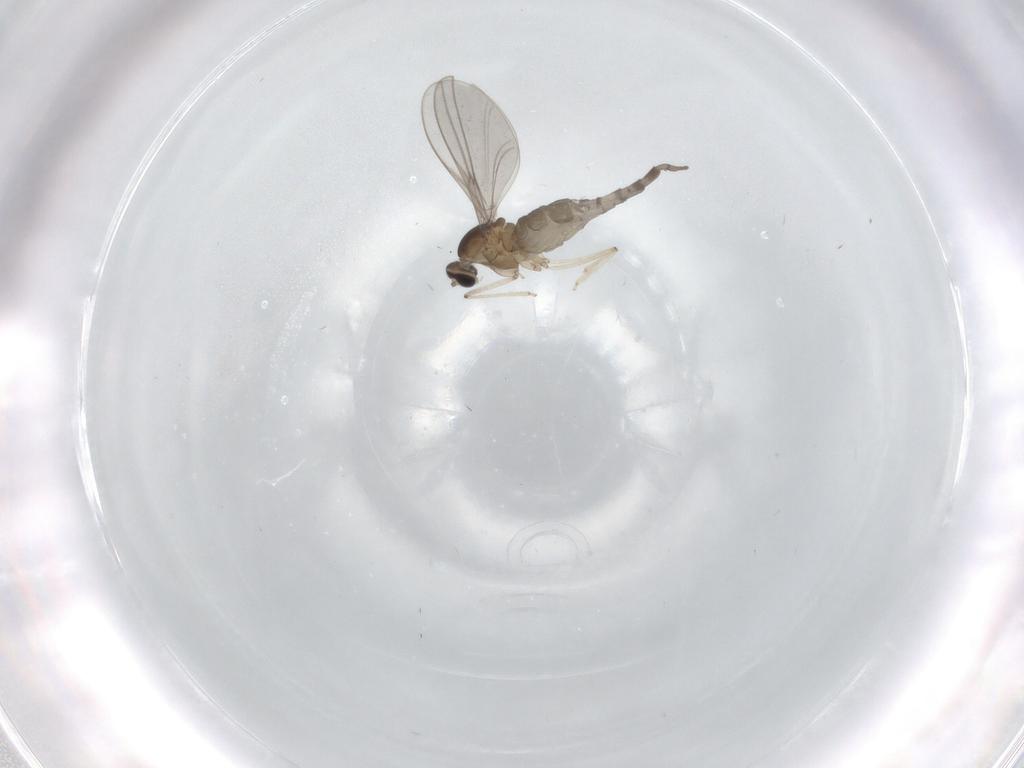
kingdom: Animalia
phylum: Arthropoda
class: Insecta
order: Diptera
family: Cecidomyiidae
